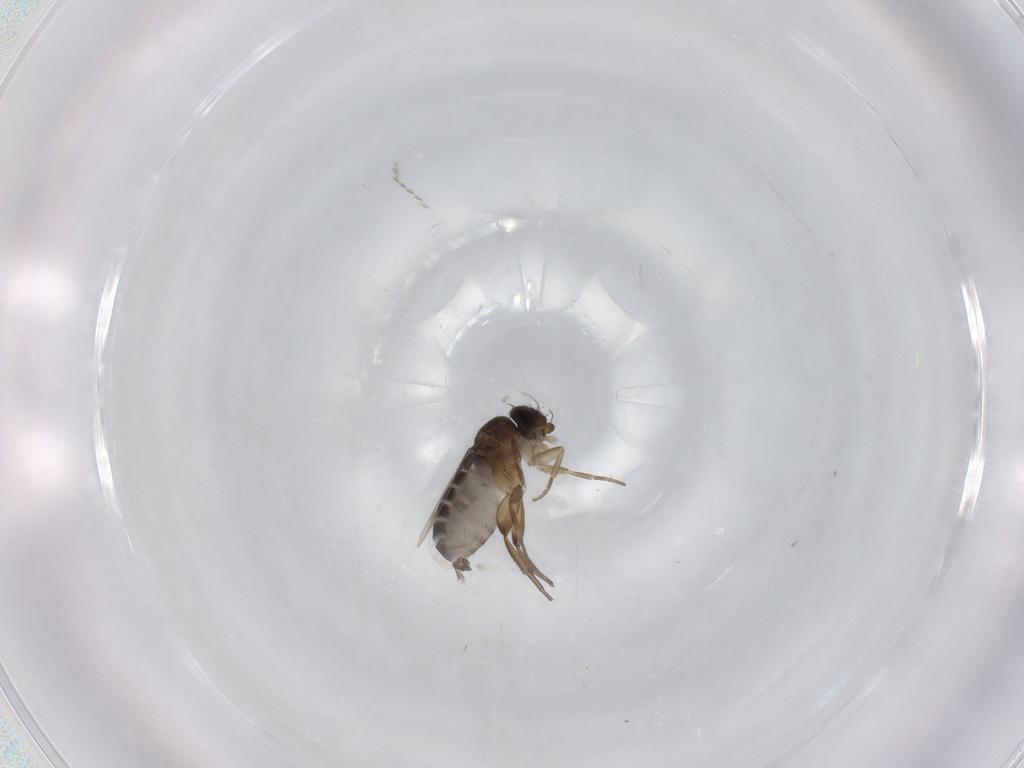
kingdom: Animalia
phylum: Arthropoda
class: Insecta
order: Diptera
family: Phoridae
